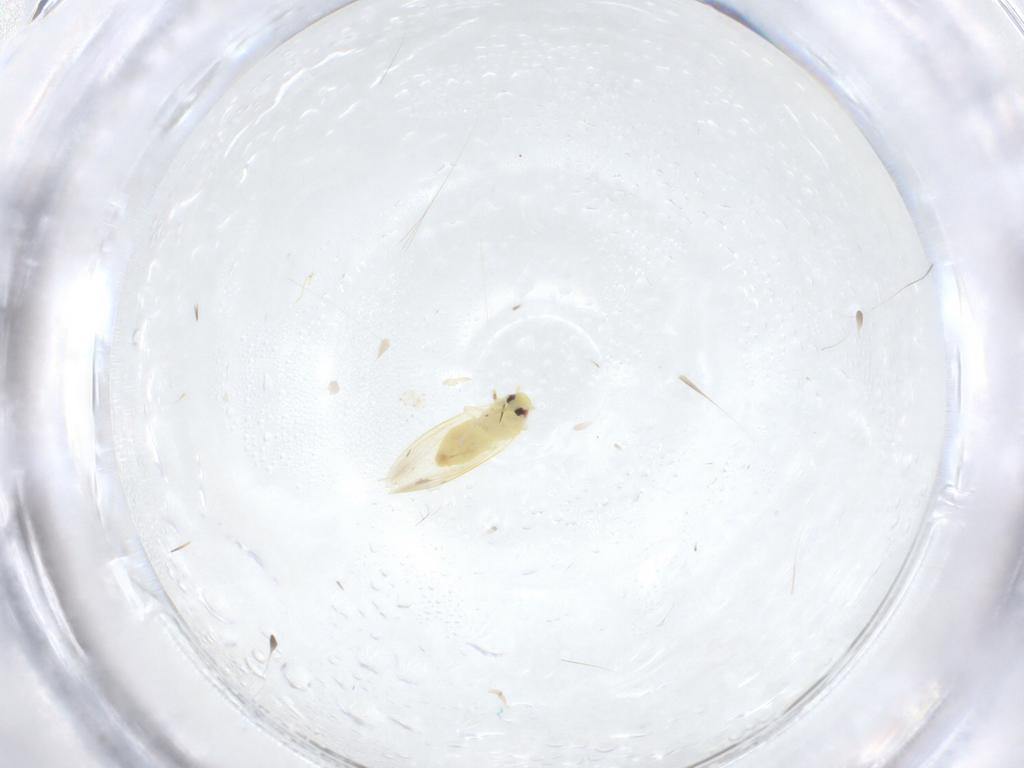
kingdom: Animalia
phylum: Arthropoda
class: Insecta
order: Hemiptera
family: Aleyrodidae
